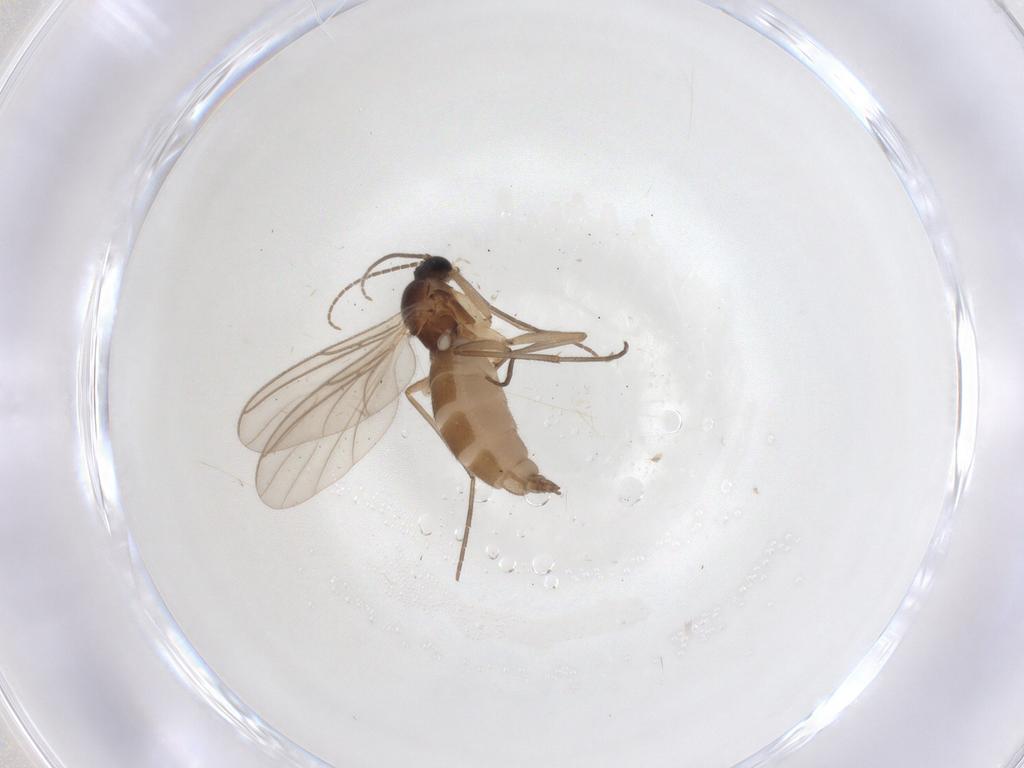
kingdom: Animalia
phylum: Arthropoda
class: Insecta
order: Diptera
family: Sciaridae
